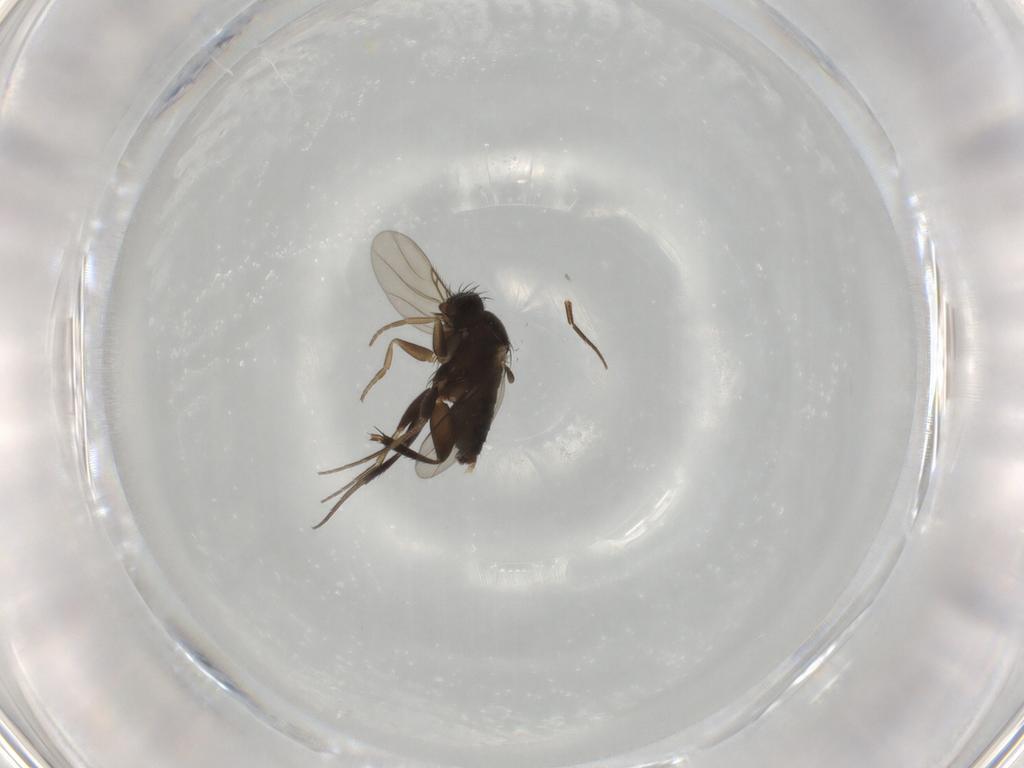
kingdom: Animalia
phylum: Arthropoda
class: Insecta
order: Diptera
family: Phoridae
